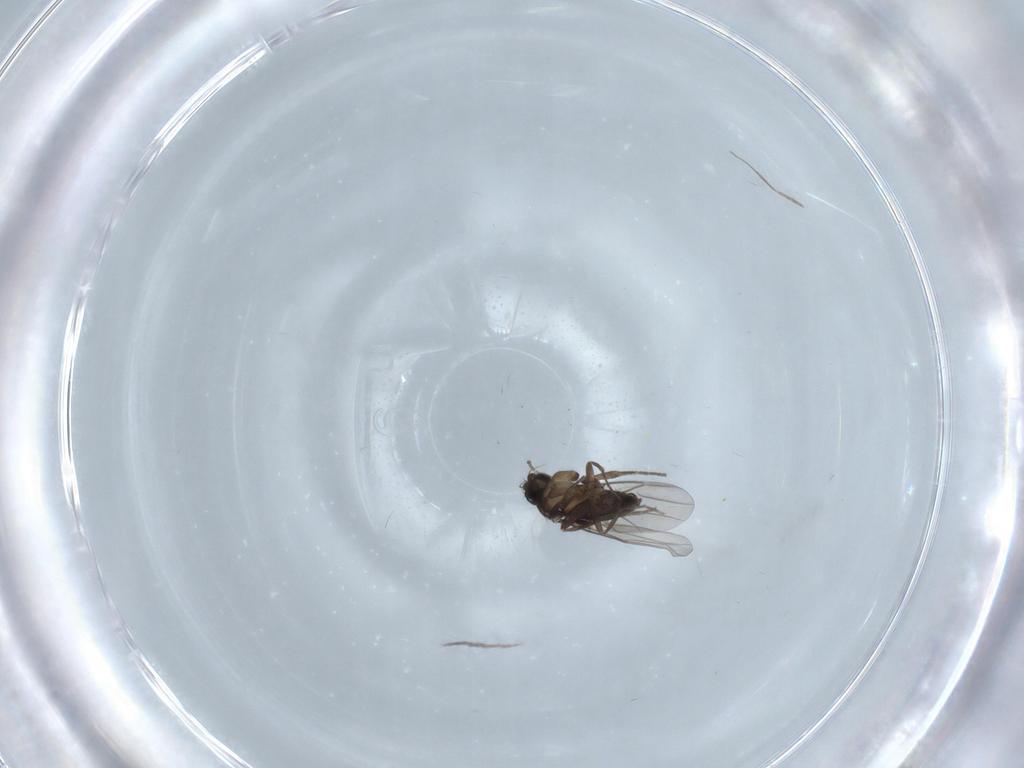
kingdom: Animalia
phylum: Arthropoda
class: Insecta
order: Diptera
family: Phoridae
